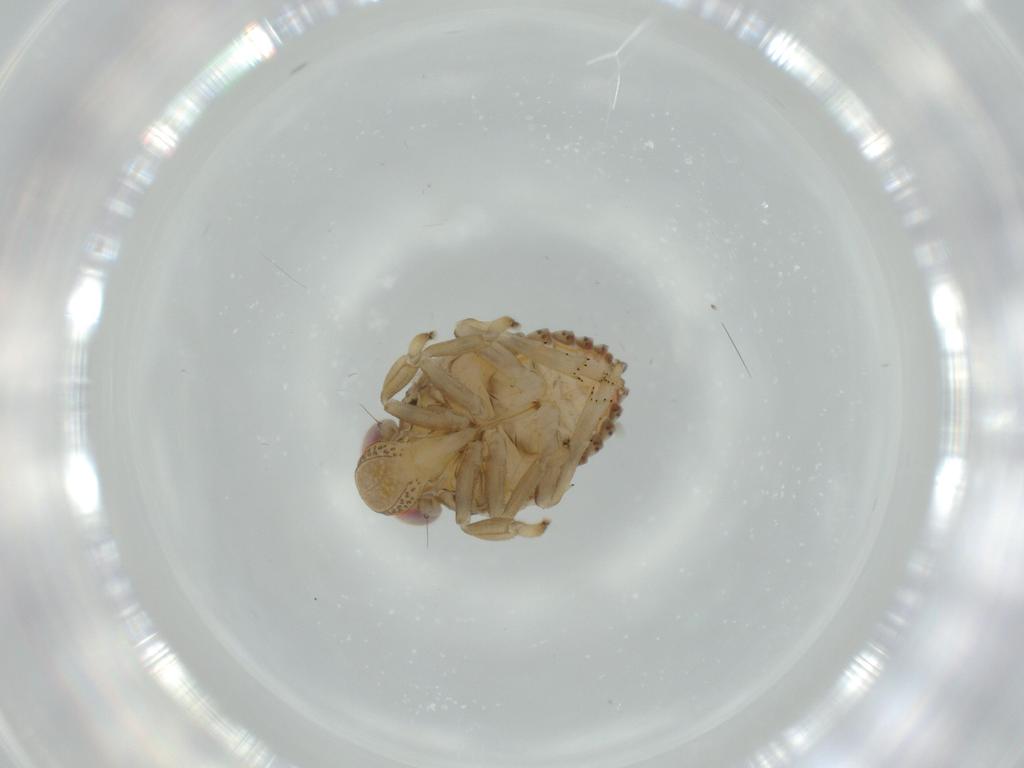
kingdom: Animalia
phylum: Arthropoda
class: Insecta
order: Hemiptera
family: Issidae
